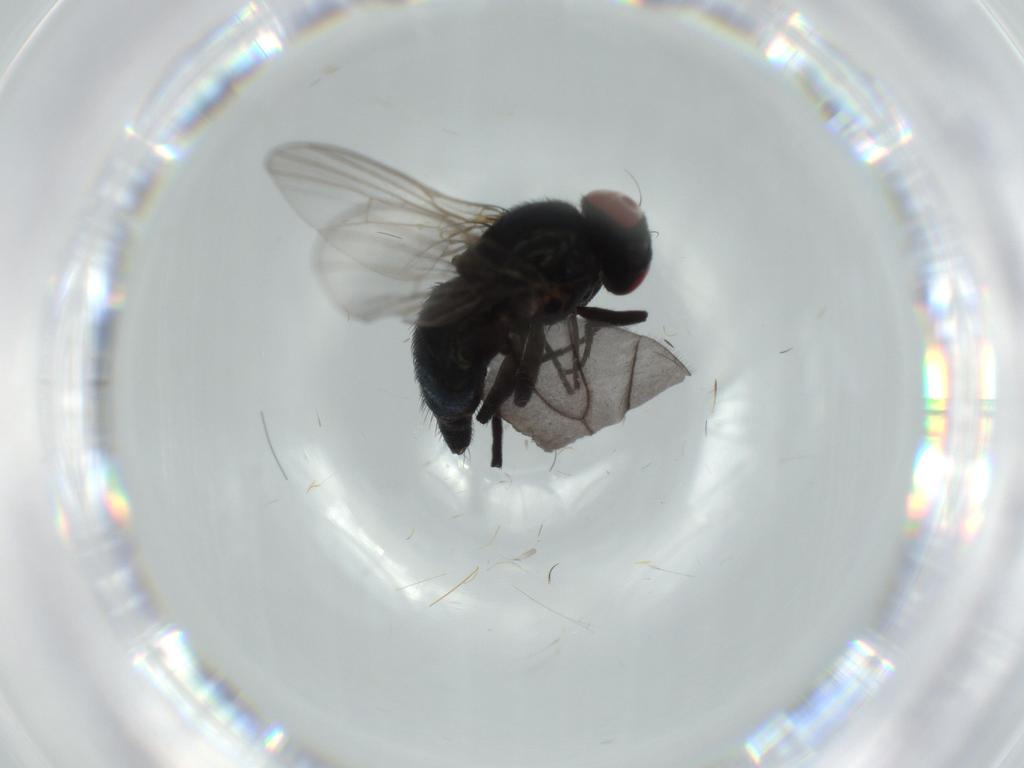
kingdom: Animalia
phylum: Arthropoda
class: Insecta
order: Diptera
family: Agromyzidae
